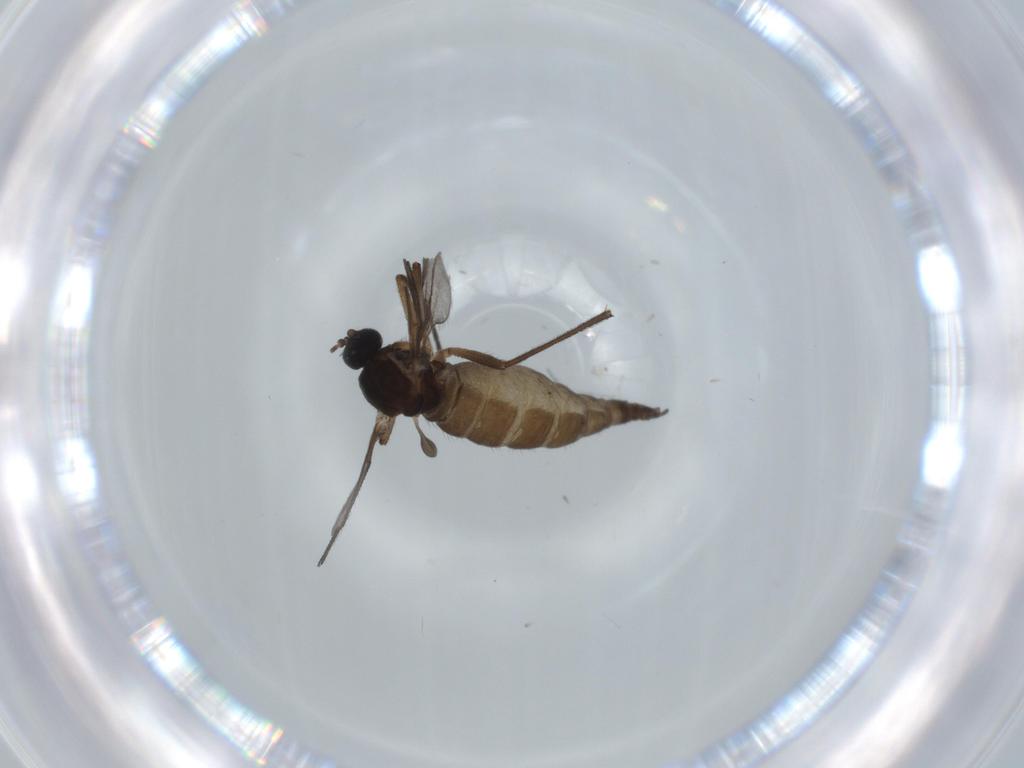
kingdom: Animalia
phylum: Arthropoda
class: Insecta
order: Diptera
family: Sciaridae
